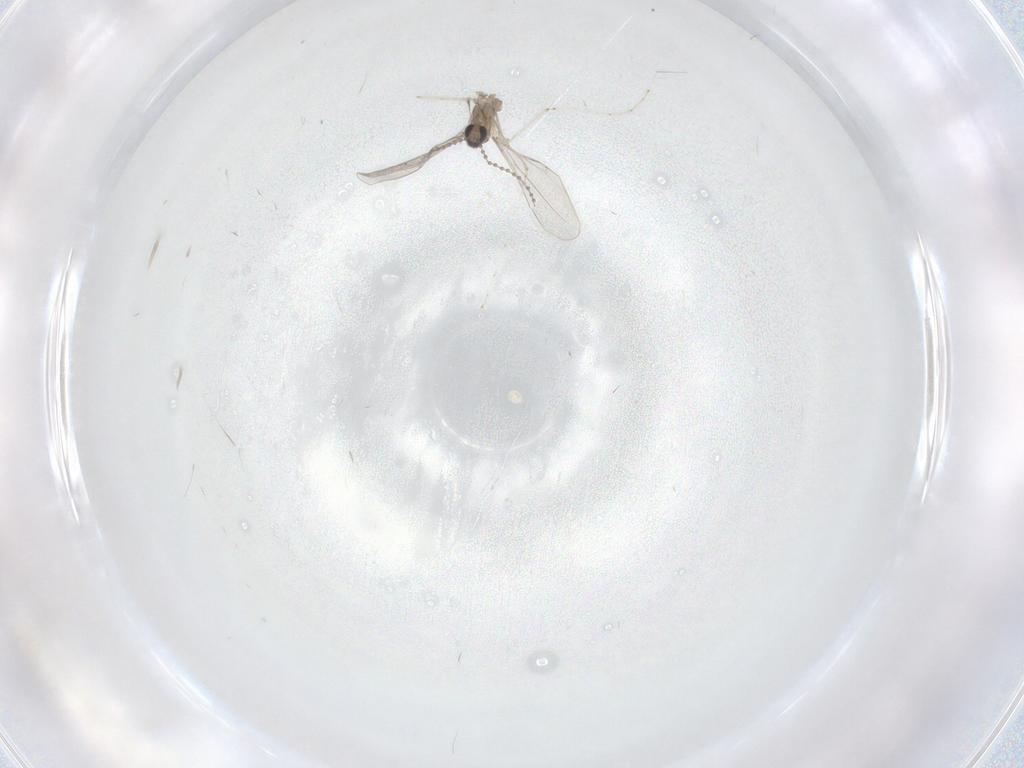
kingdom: Animalia
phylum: Arthropoda
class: Insecta
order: Diptera
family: Cecidomyiidae
